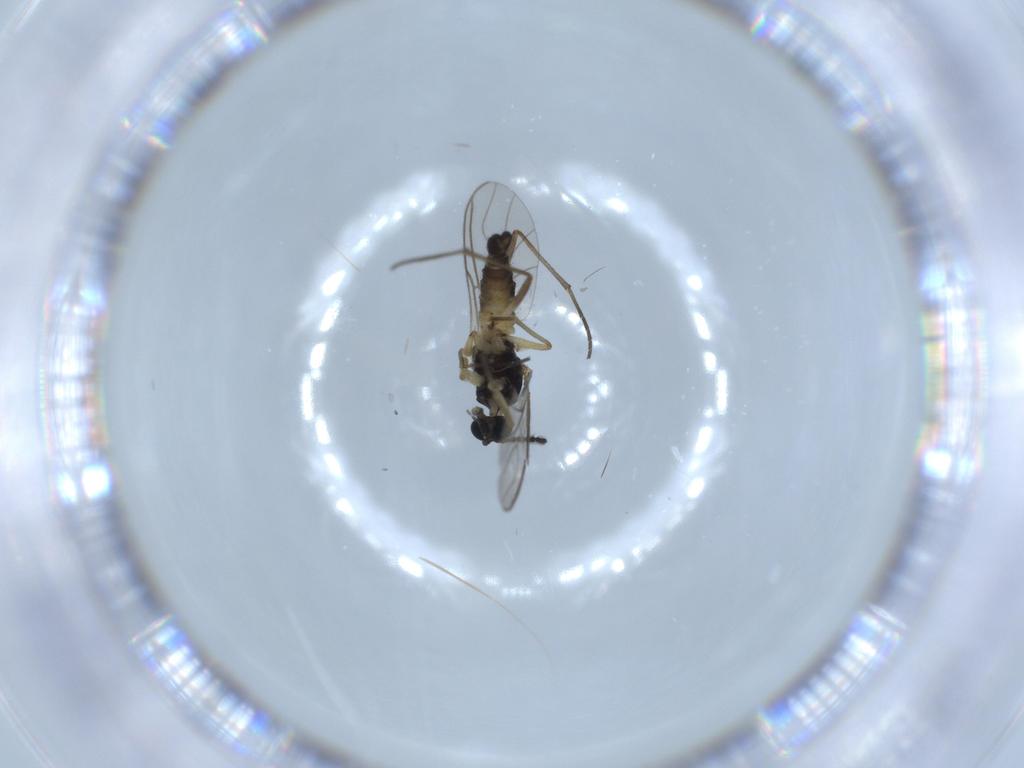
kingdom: Animalia
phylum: Arthropoda
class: Insecta
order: Diptera
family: Sciaridae
